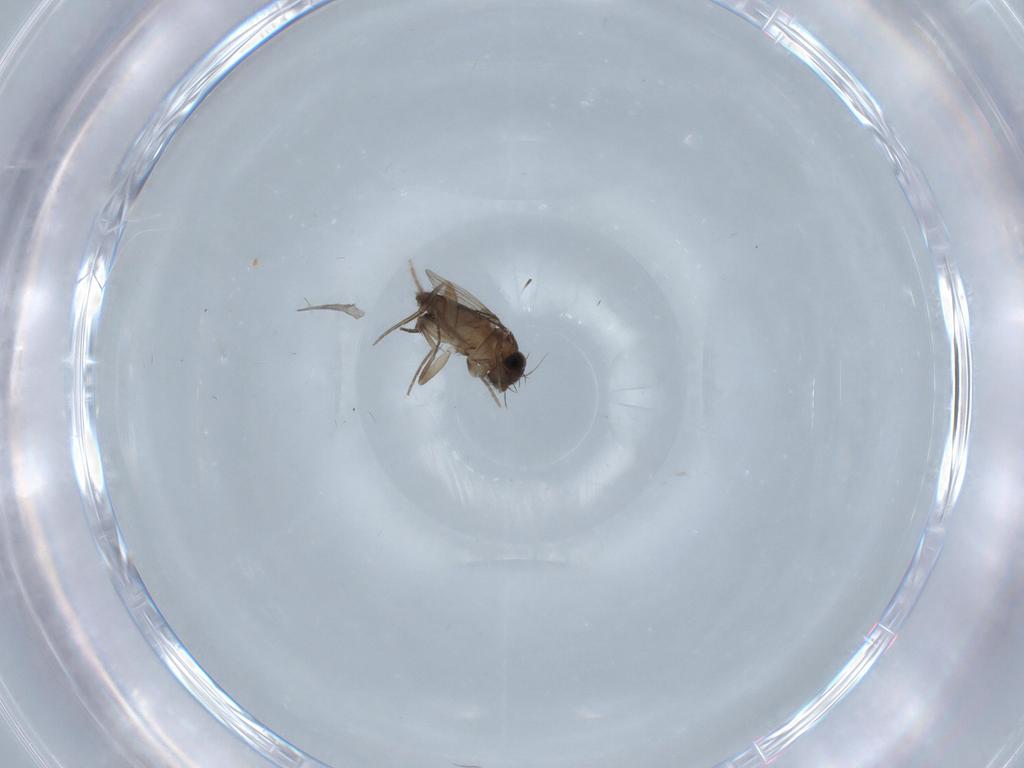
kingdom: Animalia
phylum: Arthropoda
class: Insecta
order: Diptera
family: Phoridae
